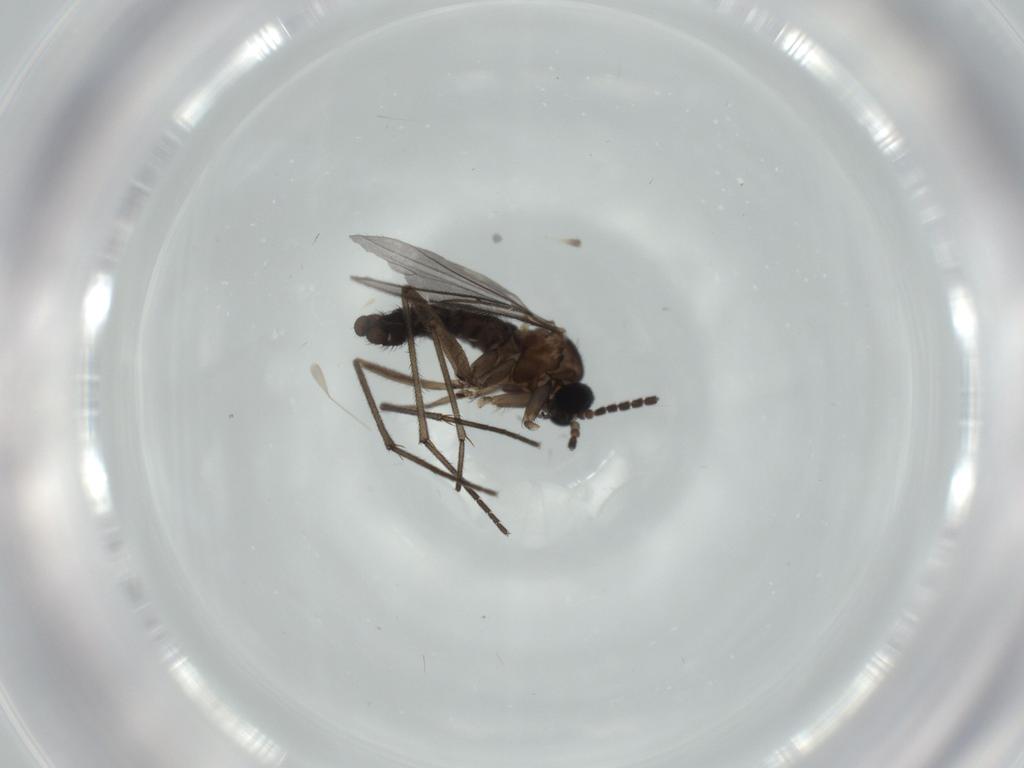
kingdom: Animalia
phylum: Arthropoda
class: Insecta
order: Diptera
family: Sciaridae
